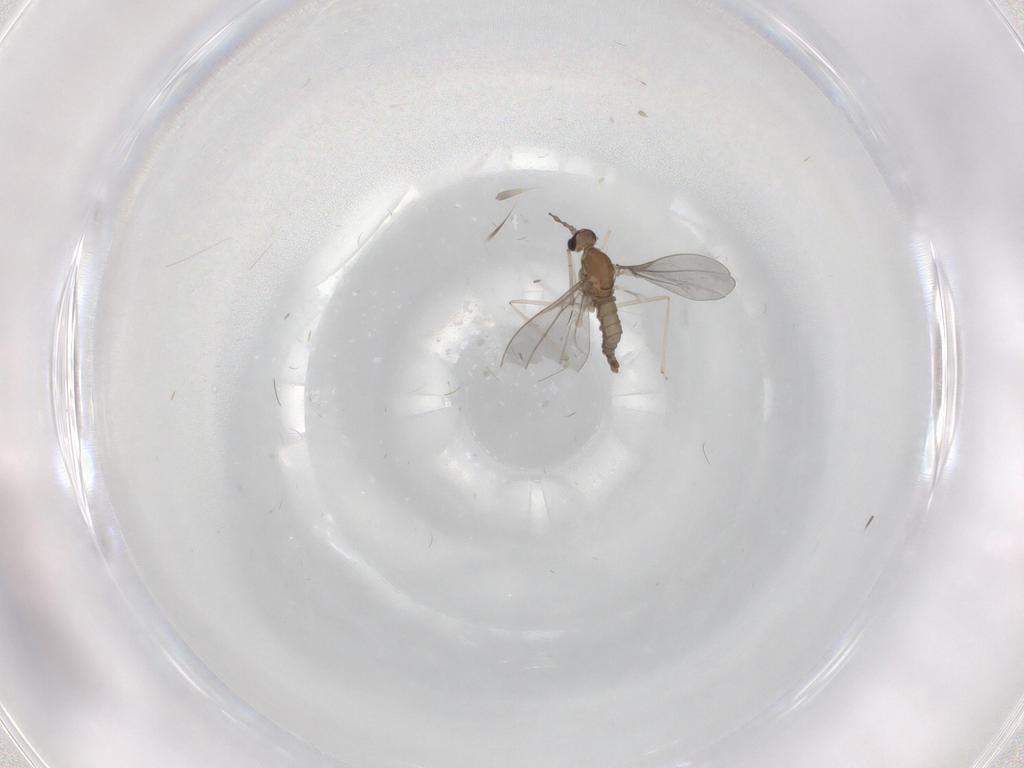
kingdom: Animalia
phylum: Arthropoda
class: Insecta
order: Diptera
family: Cecidomyiidae
